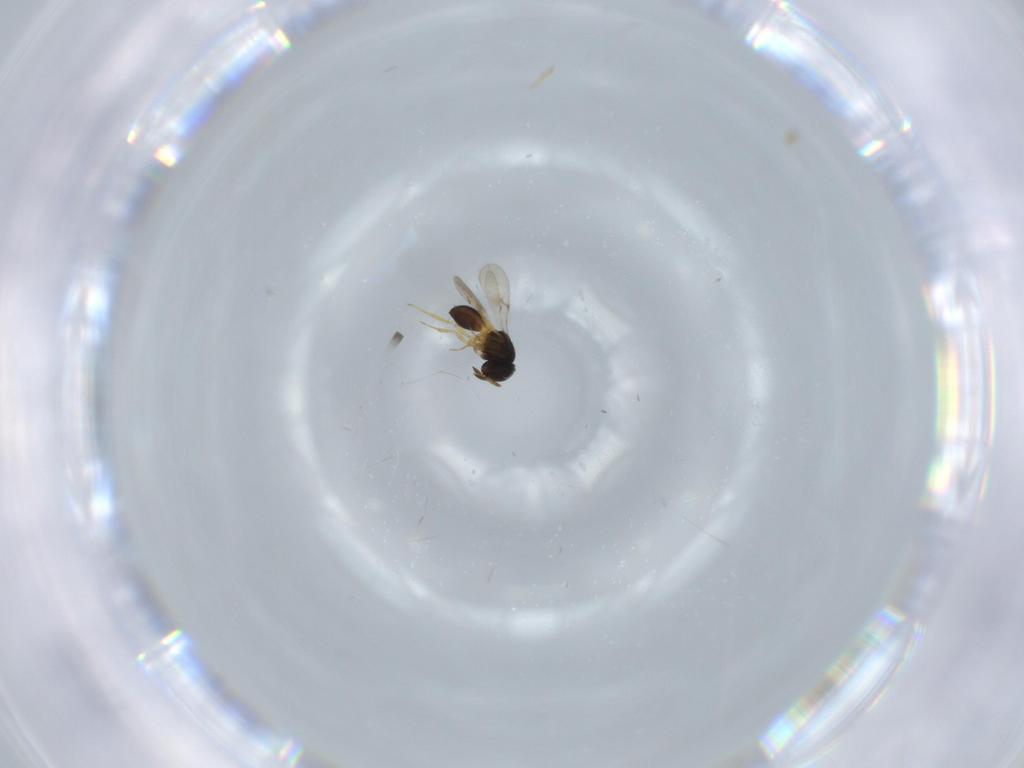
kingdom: Animalia
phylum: Arthropoda
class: Insecta
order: Hymenoptera
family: Scelionidae
